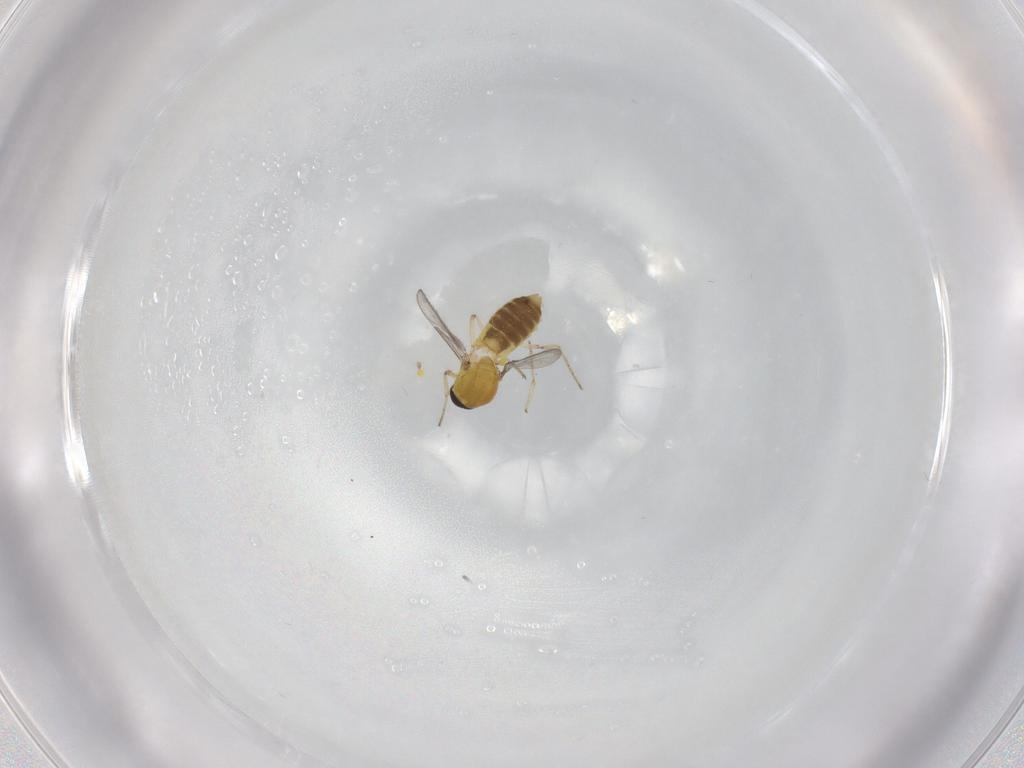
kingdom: Animalia
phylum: Arthropoda
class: Insecta
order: Diptera
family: Ceratopogonidae
